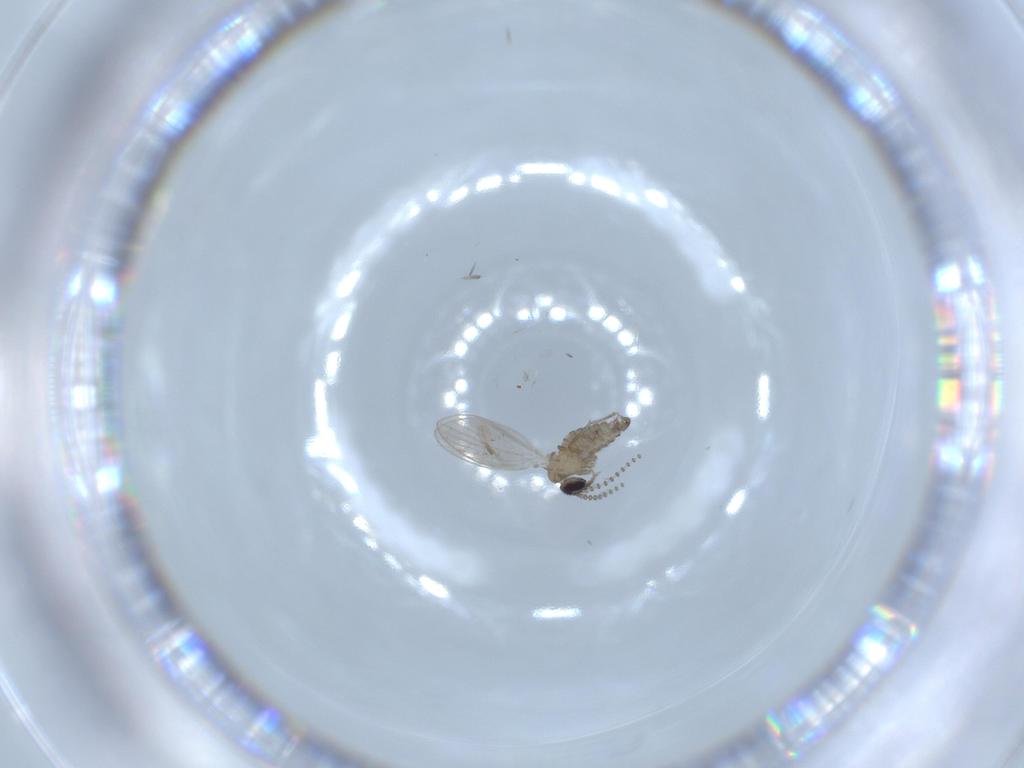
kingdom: Animalia
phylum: Arthropoda
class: Insecta
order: Diptera
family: Psychodidae
